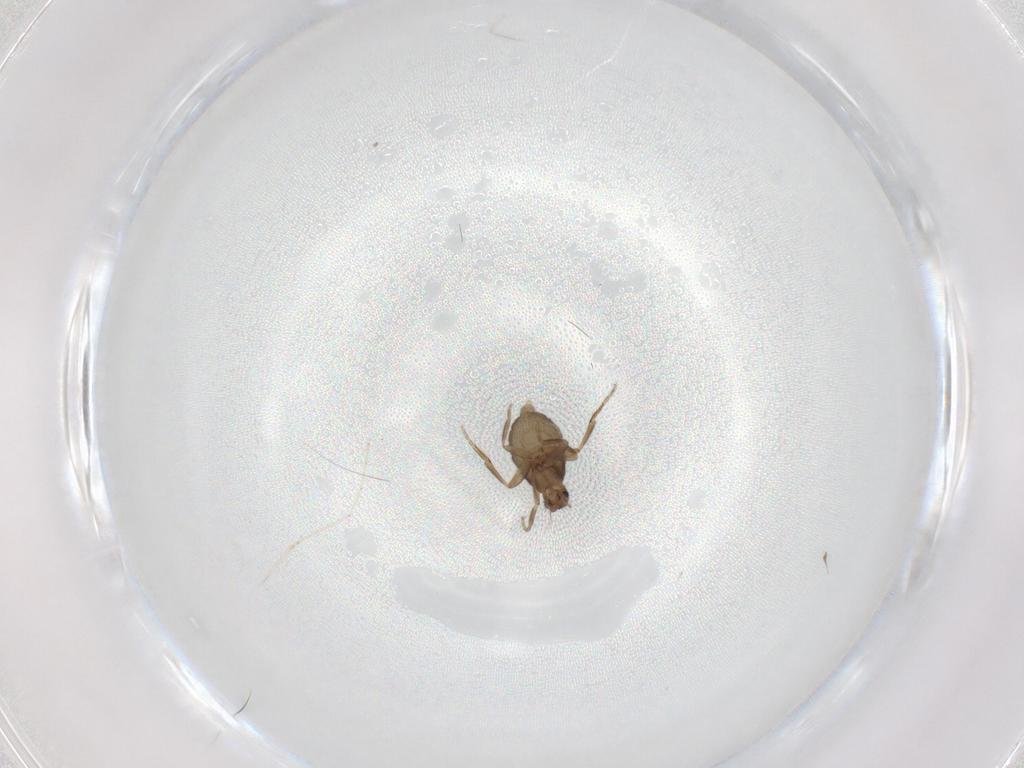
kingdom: Animalia
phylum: Arthropoda
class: Insecta
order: Diptera
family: Cecidomyiidae
